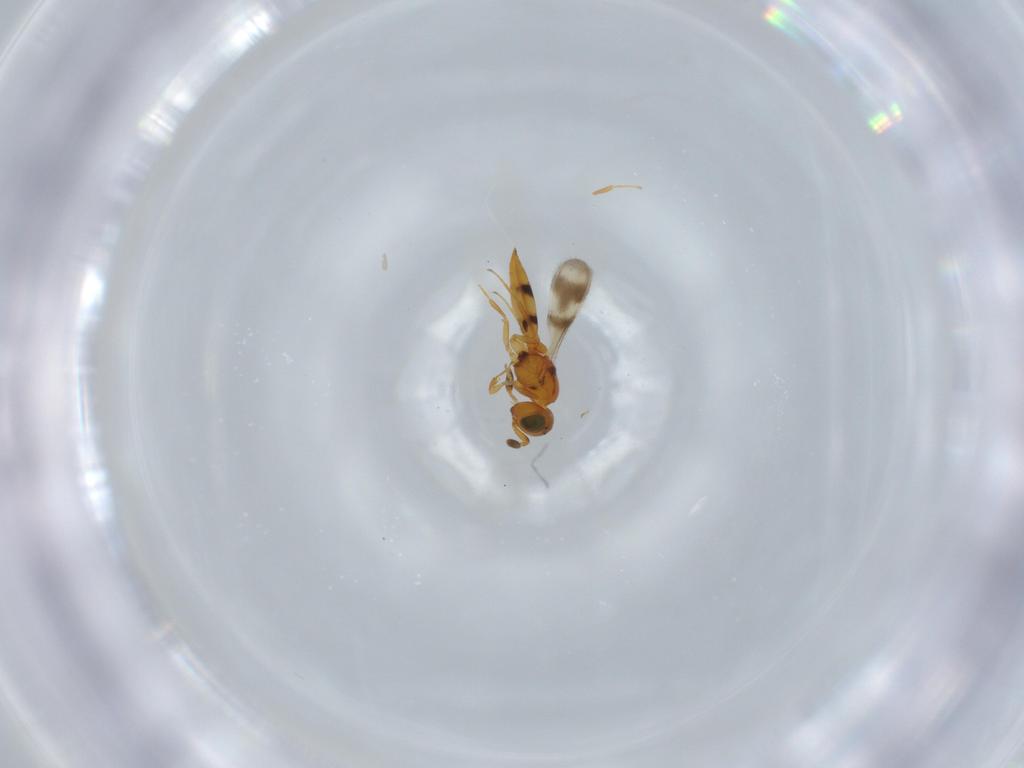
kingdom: Animalia
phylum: Arthropoda
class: Insecta
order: Hymenoptera
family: Scelionidae
